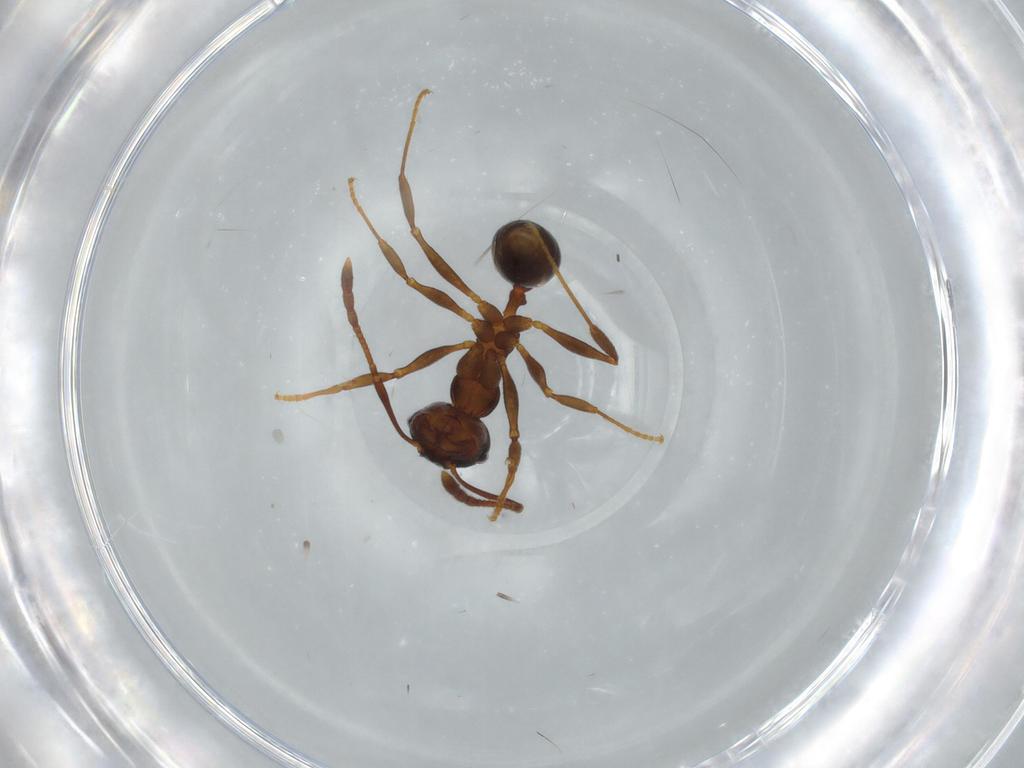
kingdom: Animalia
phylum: Arthropoda
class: Insecta
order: Hymenoptera
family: Formicidae
